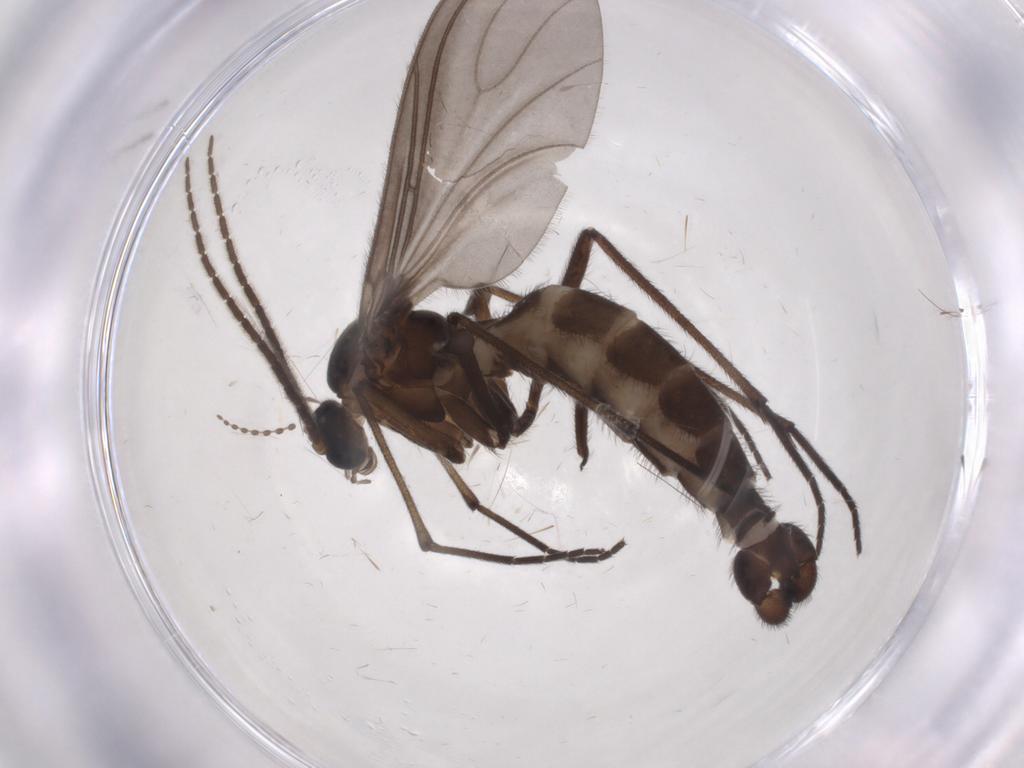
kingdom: Animalia
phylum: Arthropoda
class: Insecta
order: Diptera
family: Sciaridae
